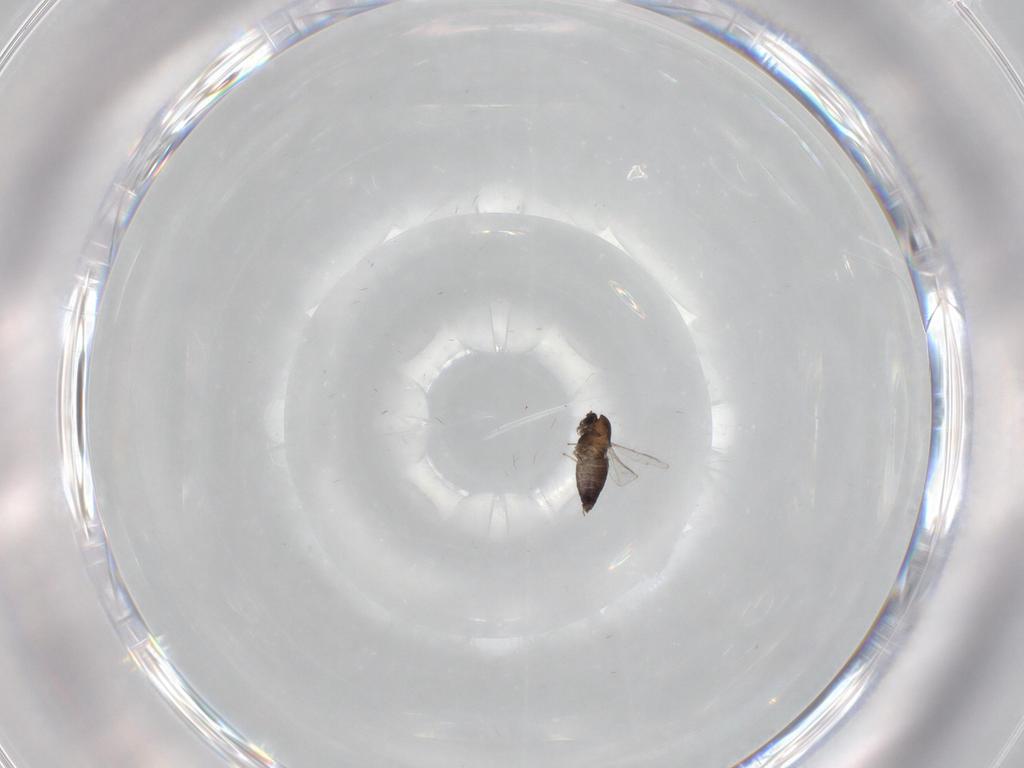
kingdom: Animalia
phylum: Arthropoda
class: Insecta
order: Diptera
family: Chironomidae
